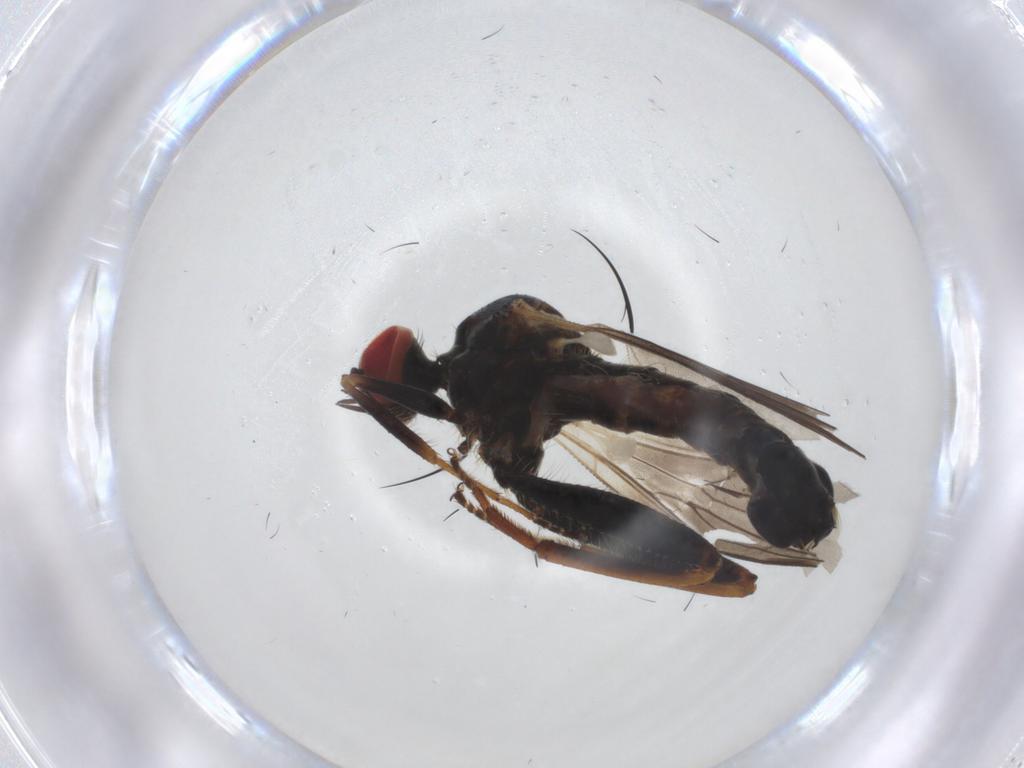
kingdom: Animalia
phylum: Arthropoda
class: Insecta
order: Diptera
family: Hybotidae
